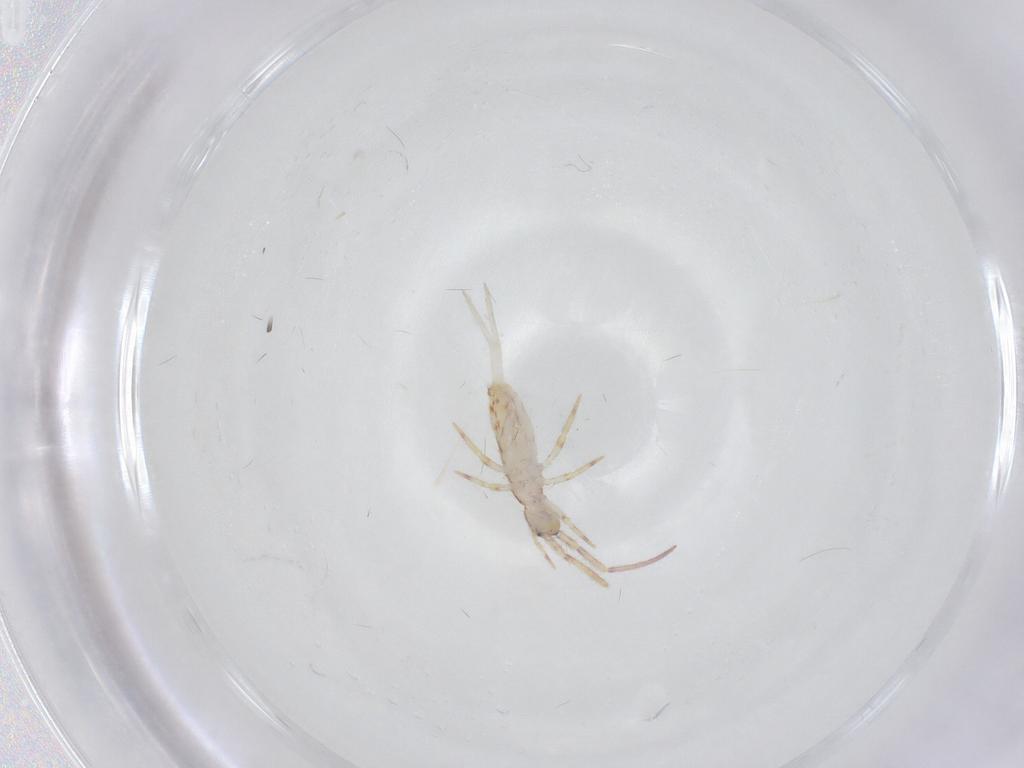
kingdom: Animalia
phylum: Arthropoda
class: Collembola
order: Entomobryomorpha
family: Entomobryidae
